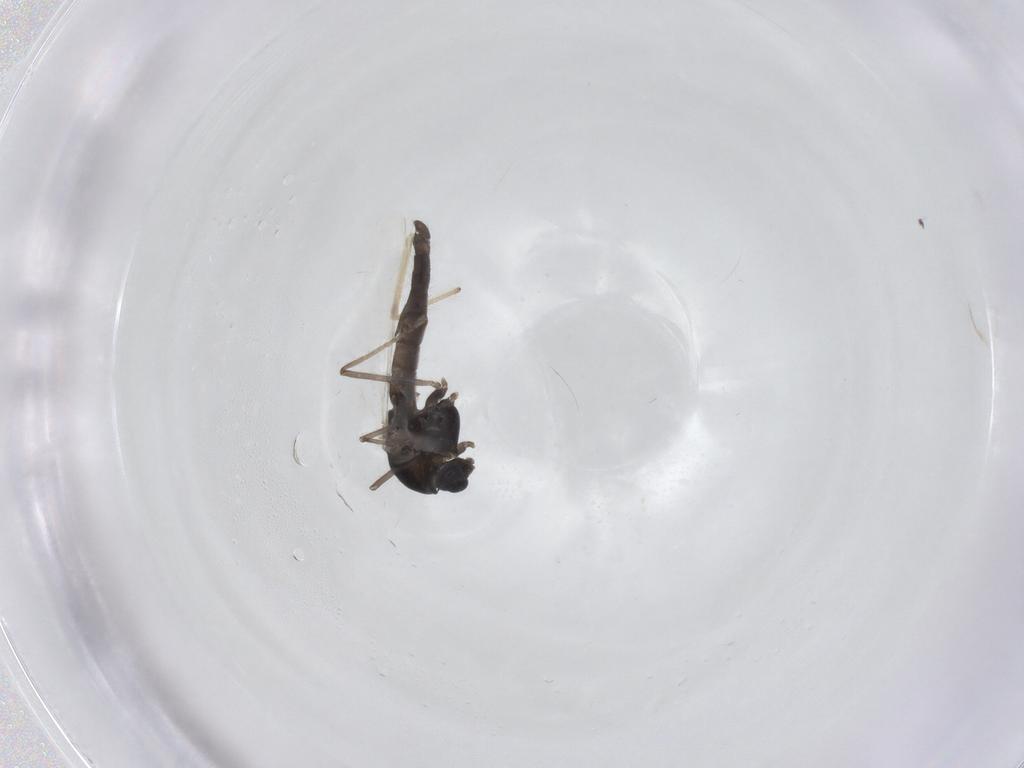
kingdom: Animalia
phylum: Arthropoda
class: Insecta
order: Diptera
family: Chironomidae
